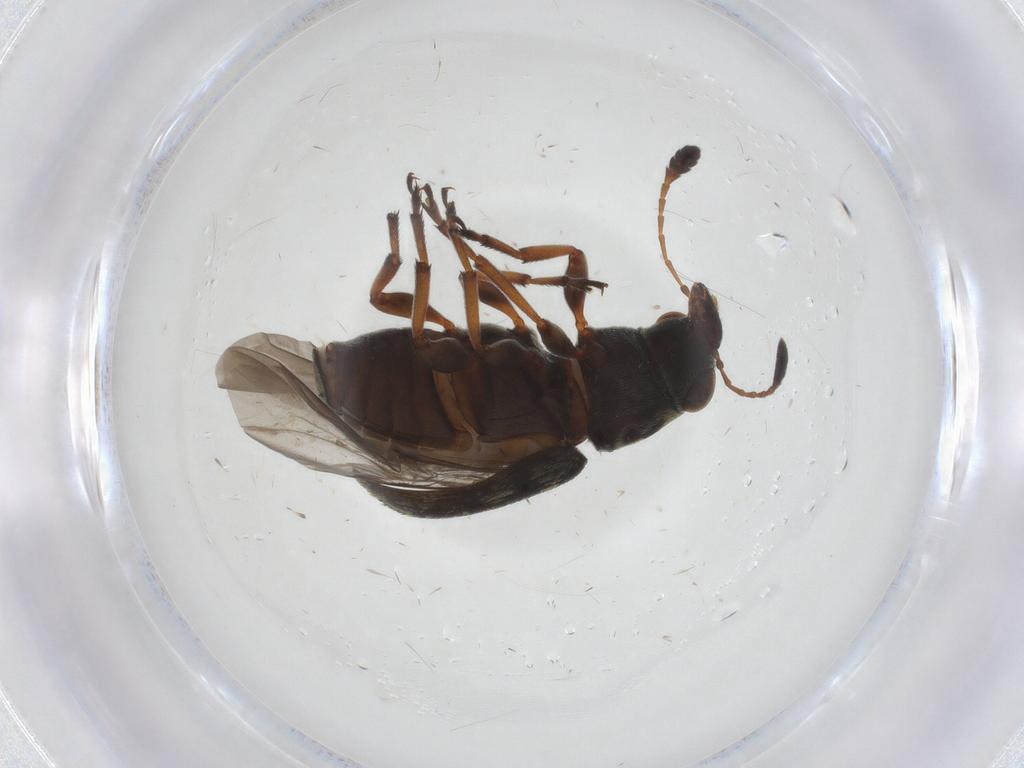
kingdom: Animalia
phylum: Arthropoda
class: Insecta
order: Coleoptera
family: Anthribidae
